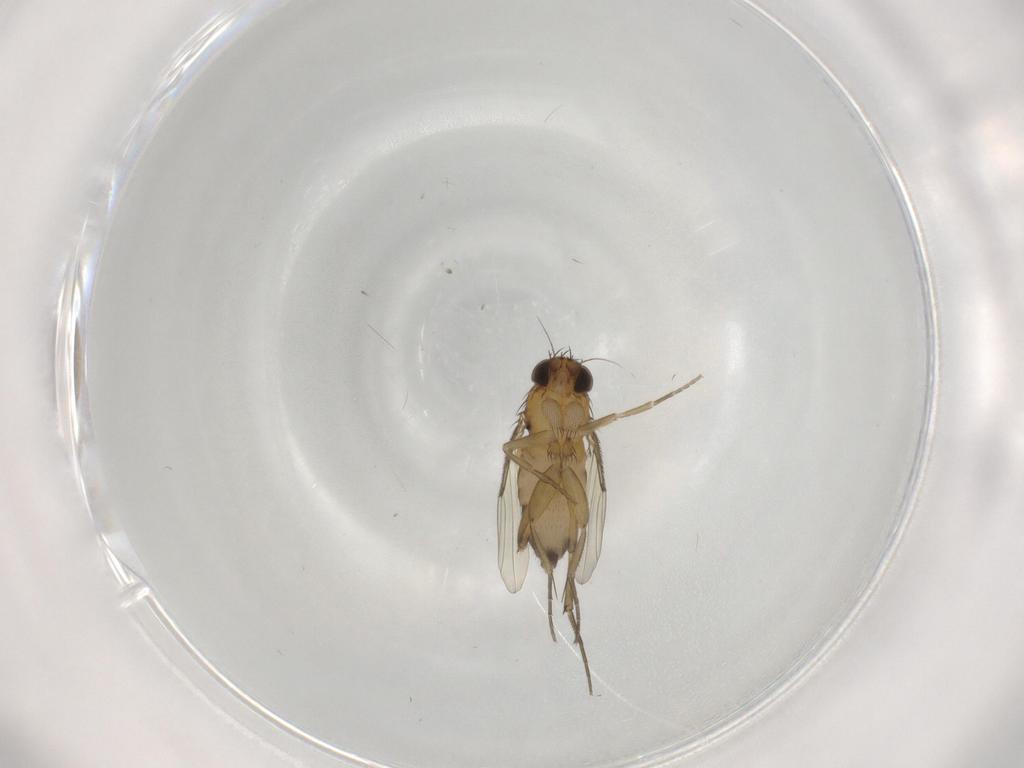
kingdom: Animalia
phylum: Arthropoda
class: Insecta
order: Diptera
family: Phoridae
